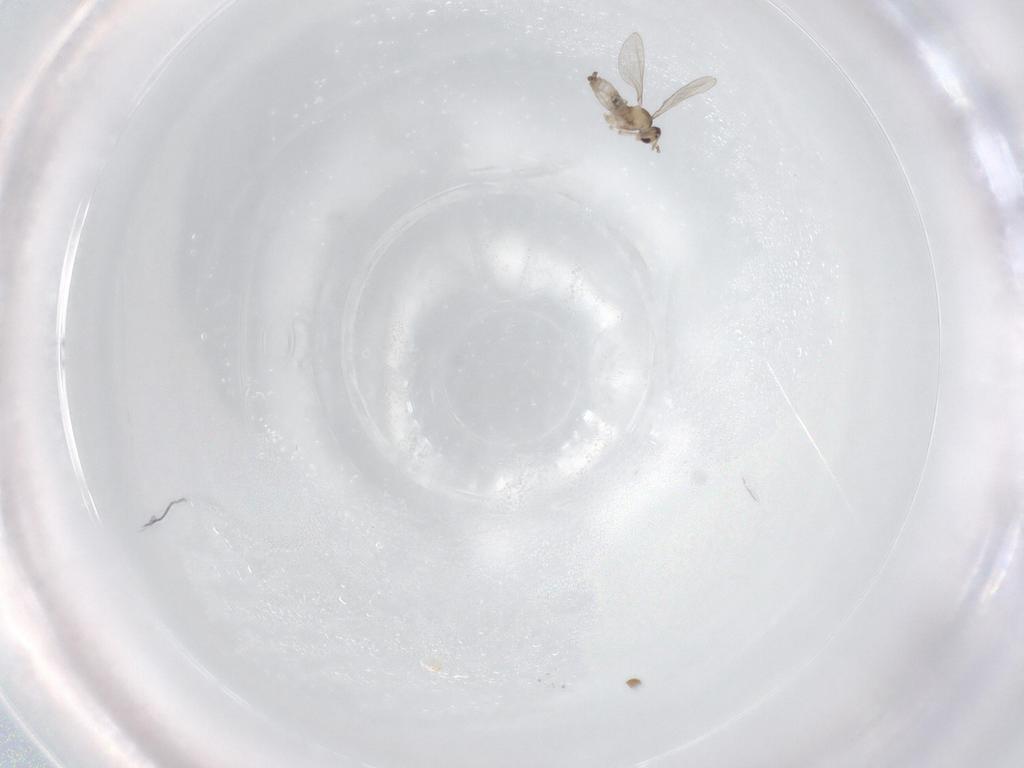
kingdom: Animalia
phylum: Arthropoda
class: Insecta
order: Diptera
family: Cecidomyiidae
